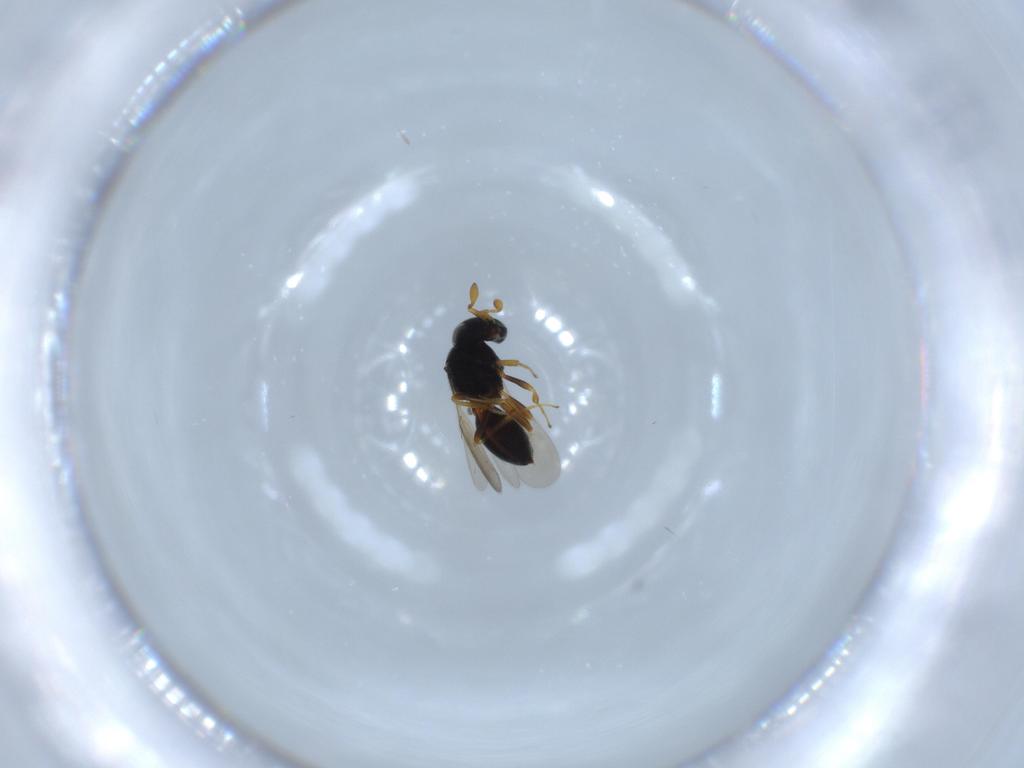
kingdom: Animalia
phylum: Arthropoda
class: Insecta
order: Hymenoptera
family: Scelionidae
